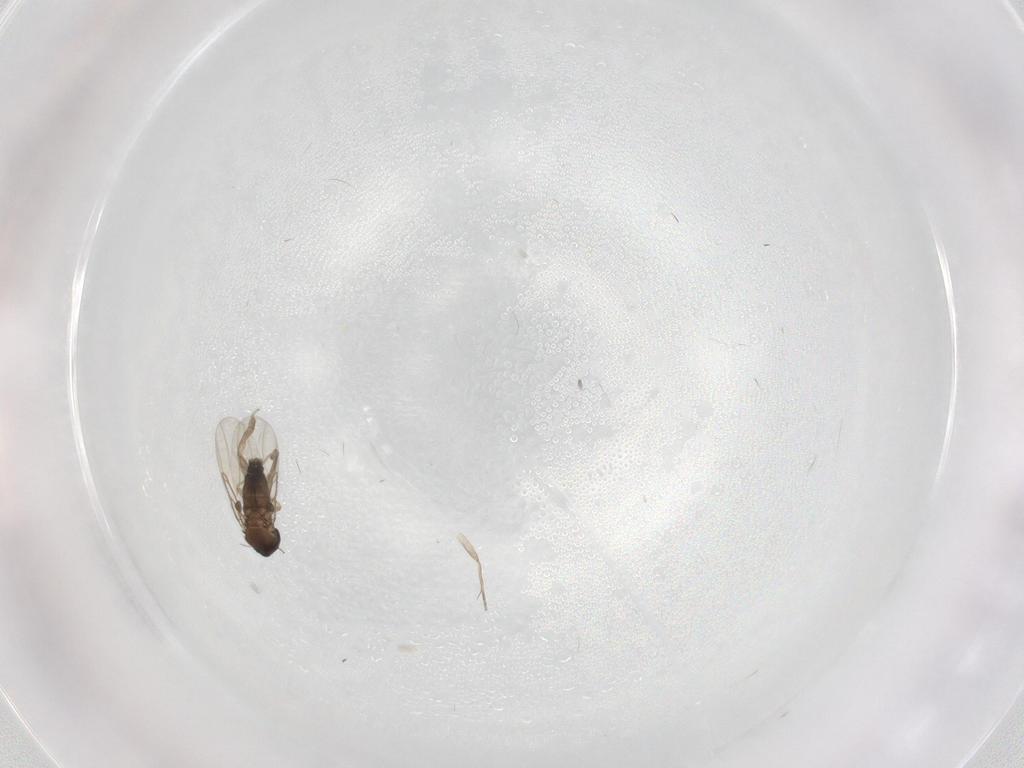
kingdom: Animalia
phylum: Arthropoda
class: Insecta
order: Diptera
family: Phoridae
